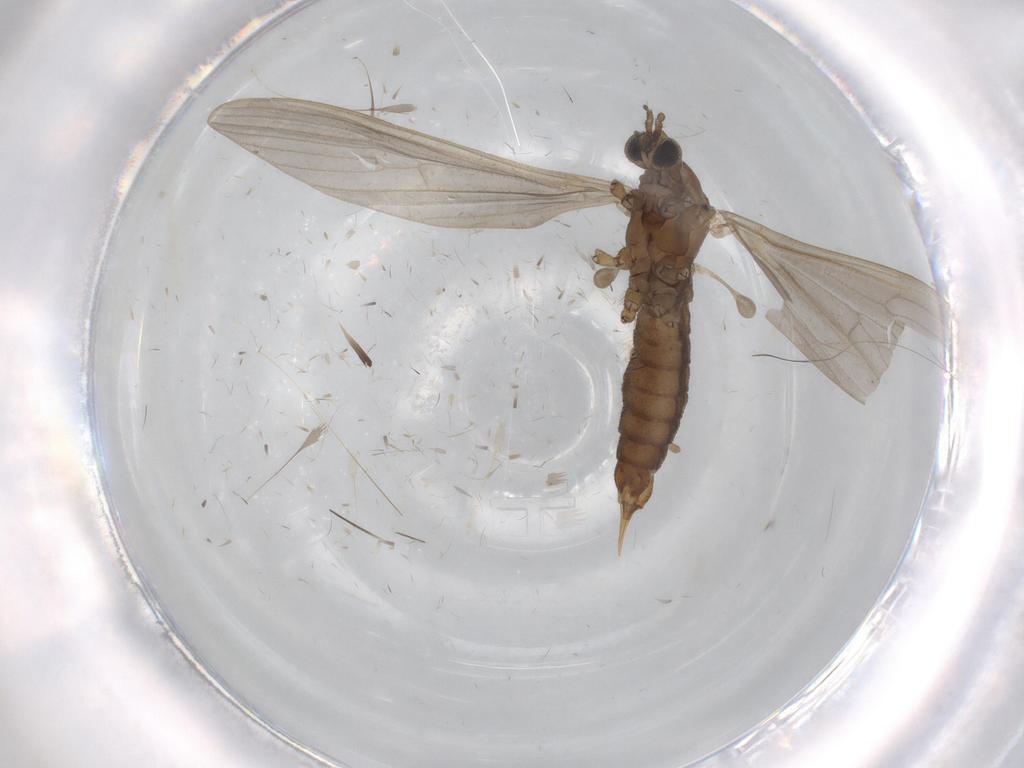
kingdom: Animalia
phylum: Arthropoda
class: Insecta
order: Diptera
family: Limoniidae
